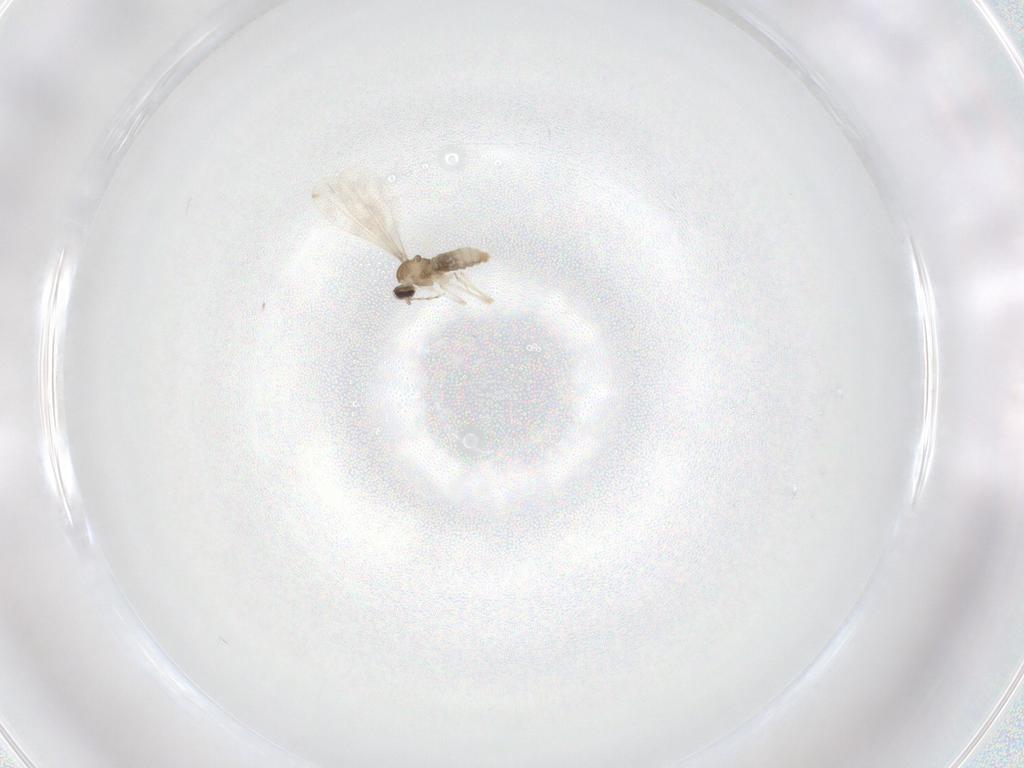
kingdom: Animalia
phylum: Arthropoda
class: Insecta
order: Diptera
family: Cecidomyiidae
